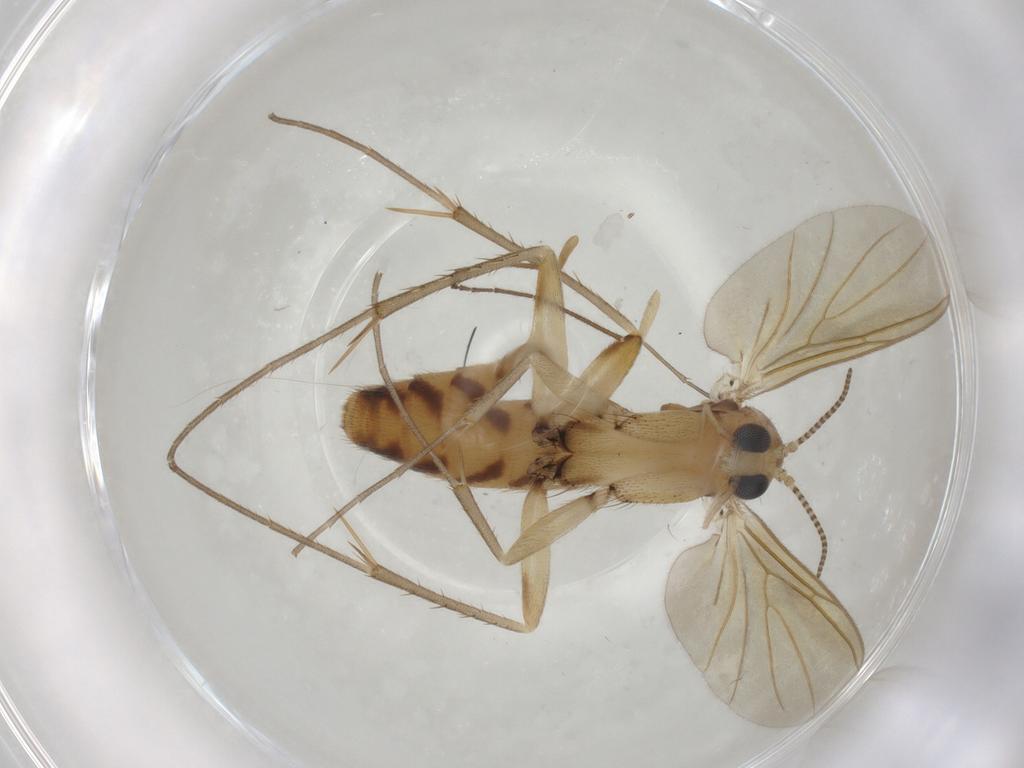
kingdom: Animalia
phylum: Arthropoda
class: Insecta
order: Diptera
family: Mycetophilidae
